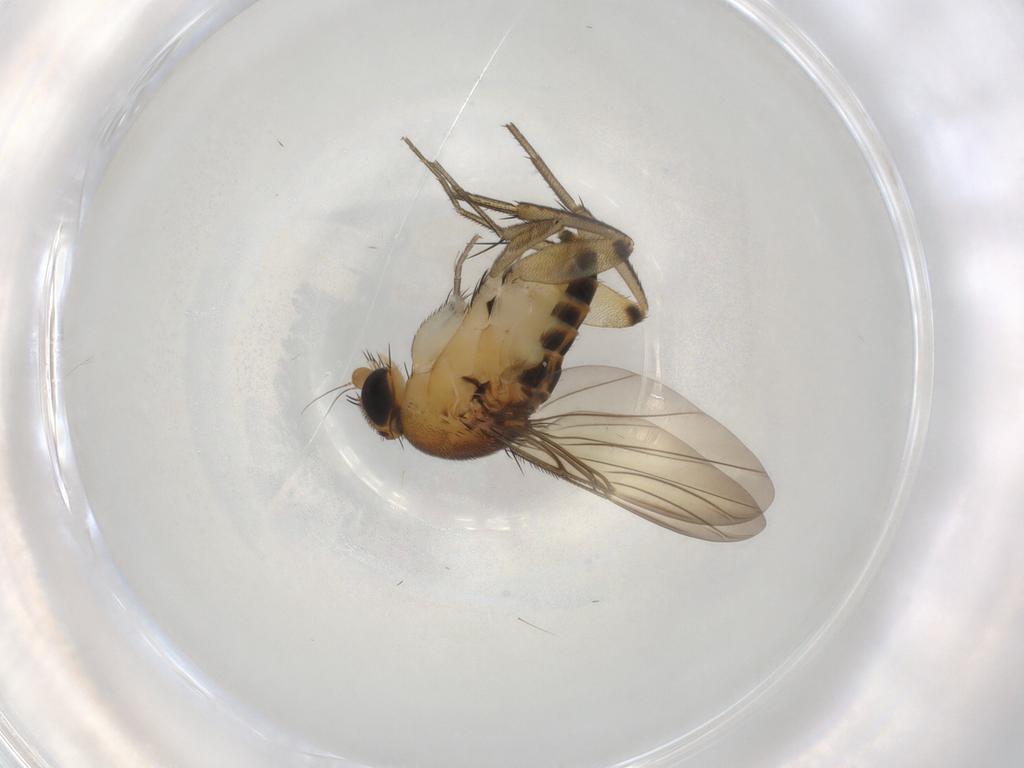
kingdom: Animalia
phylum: Arthropoda
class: Insecta
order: Diptera
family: Phoridae
